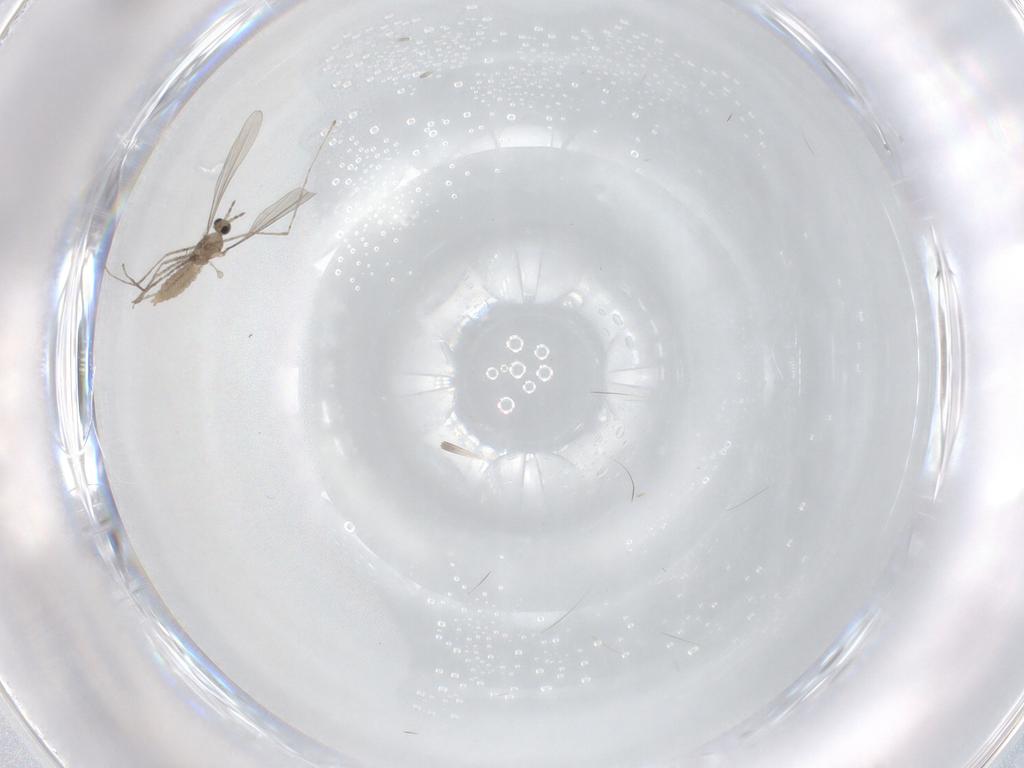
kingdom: Animalia
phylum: Arthropoda
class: Insecta
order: Diptera
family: Cecidomyiidae
